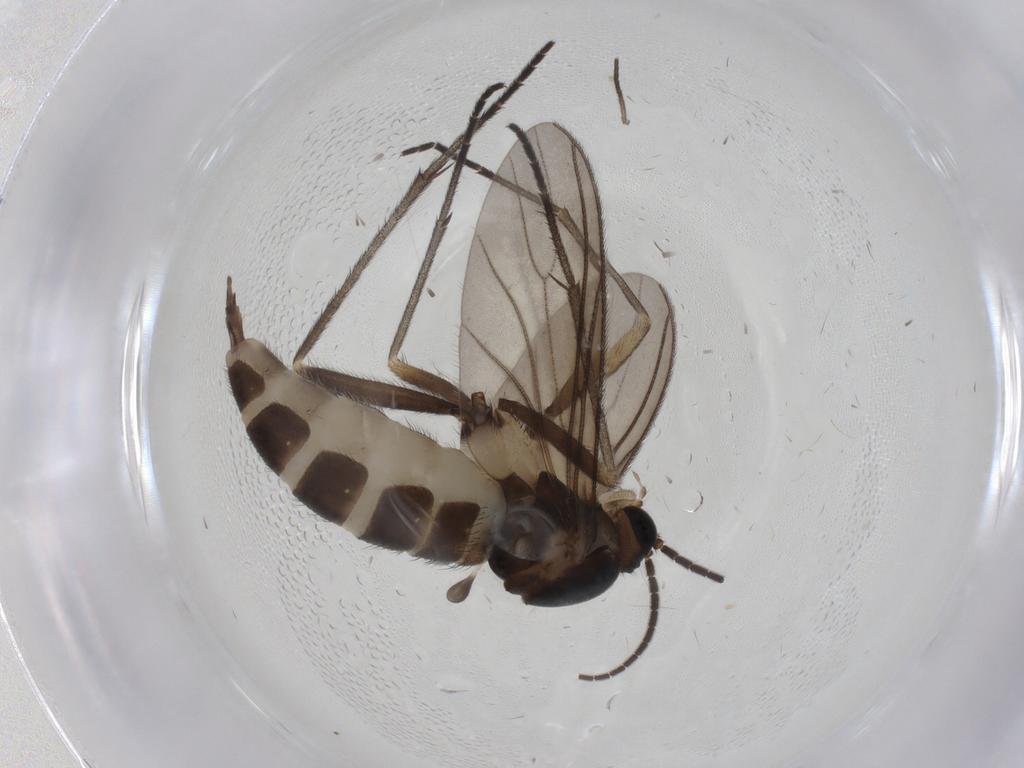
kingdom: Animalia
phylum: Arthropoda
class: Insecta
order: Diptera
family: Sciaridae
